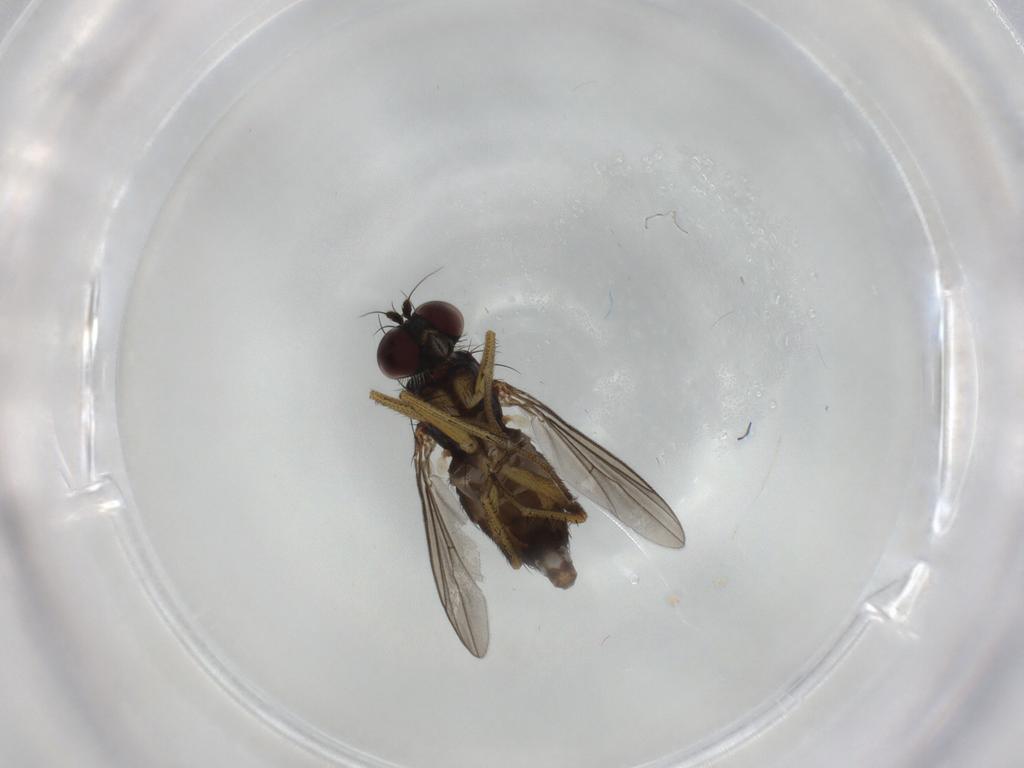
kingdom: Animalia
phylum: Arthropoda
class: Insecta
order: Diptera
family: Dolichopodidae
